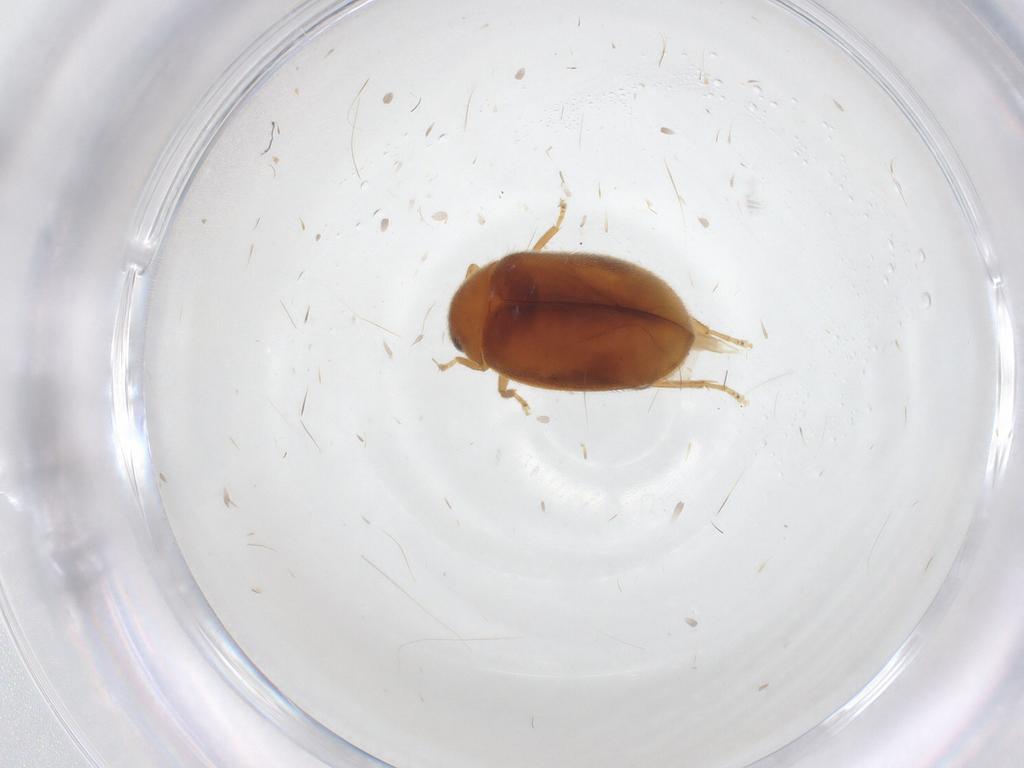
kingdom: Animalia
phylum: Arthropoda
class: Insecta
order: Coleoptera
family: Scirtidae
